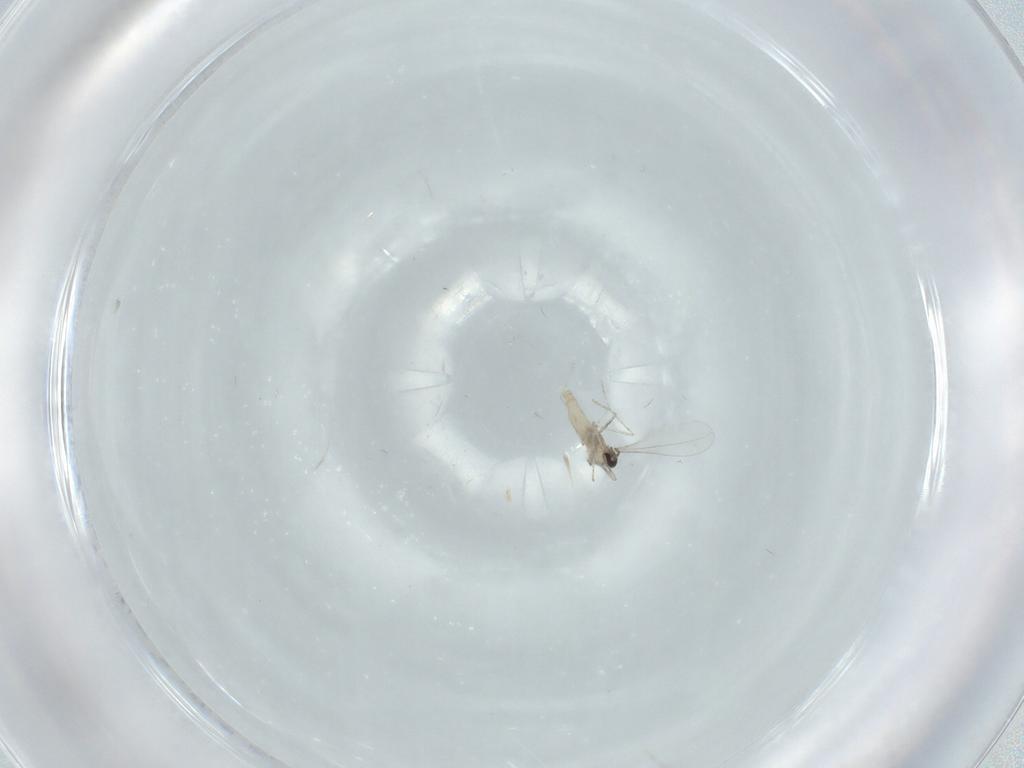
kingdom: Animalia
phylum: Arthropoda
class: Insecta
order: Diptera
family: Cecidomyiidae
